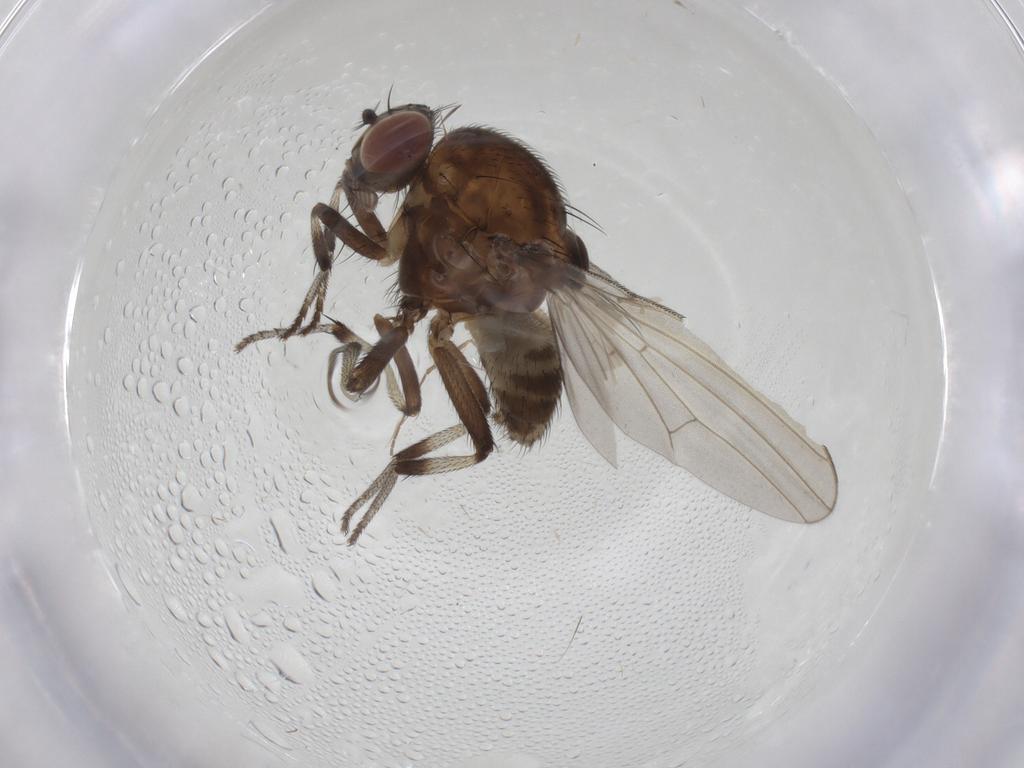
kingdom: Animalia
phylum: Arthropoda
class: Insecta
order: Diptera
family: Lauxaniidae
